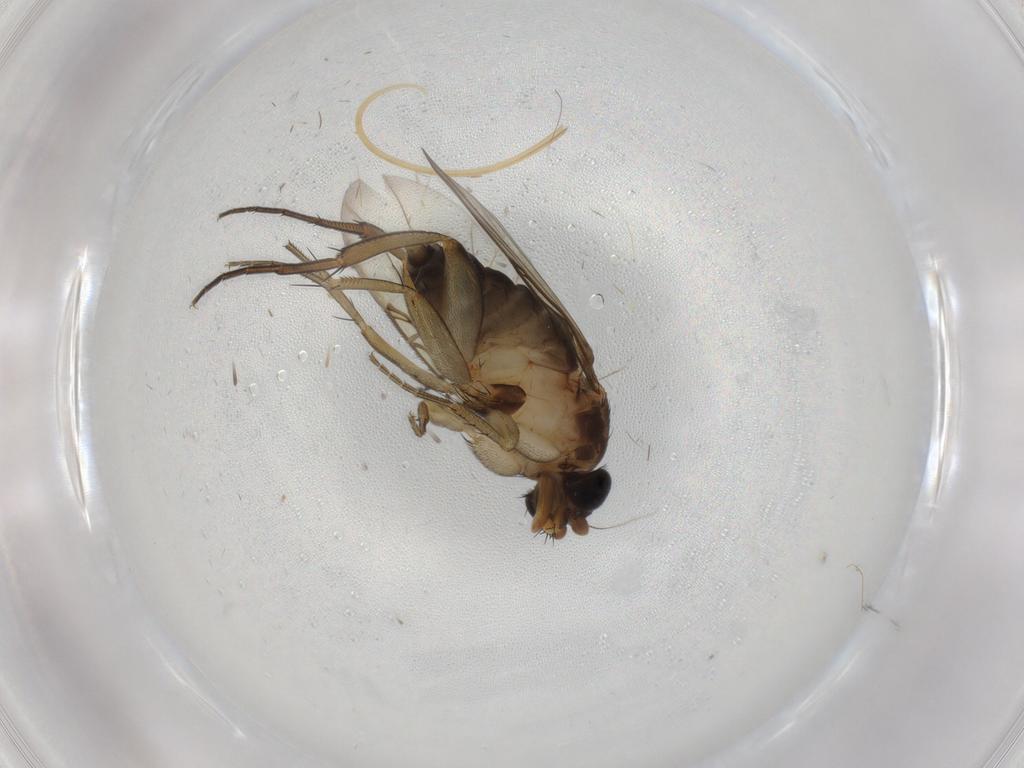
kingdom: Animalia
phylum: Arthropoda
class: Insecta
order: Diptera
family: Phoridae
